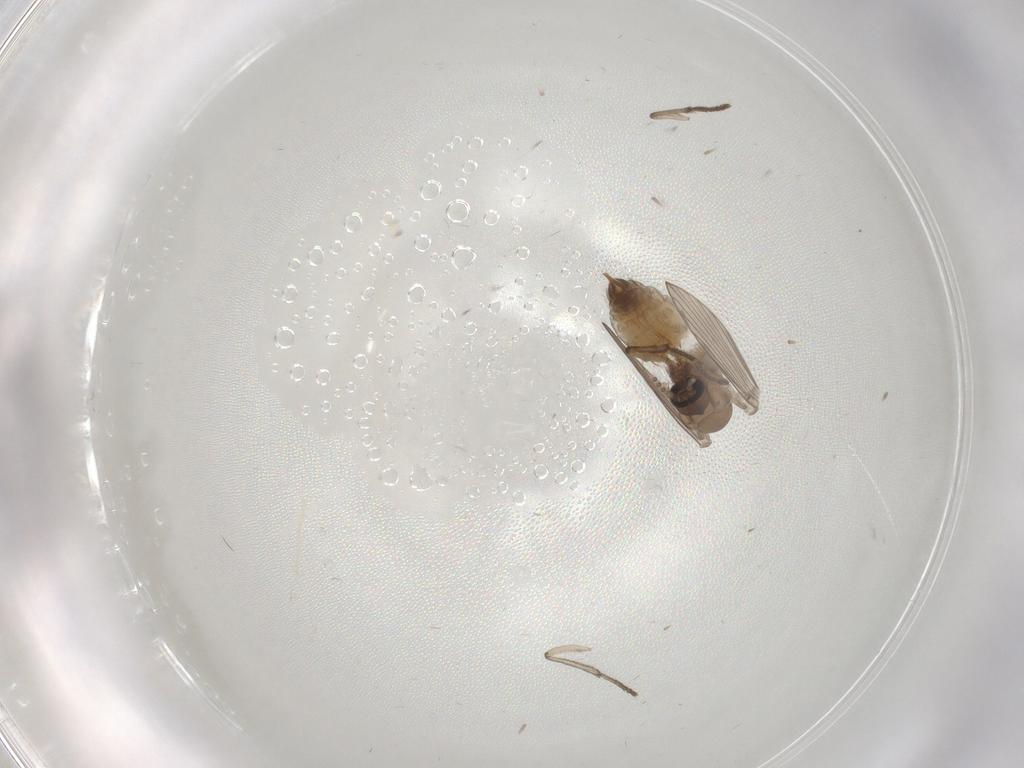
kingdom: Animalia
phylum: Arthropoda
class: Insecta
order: Diptera
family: Psychodidae
